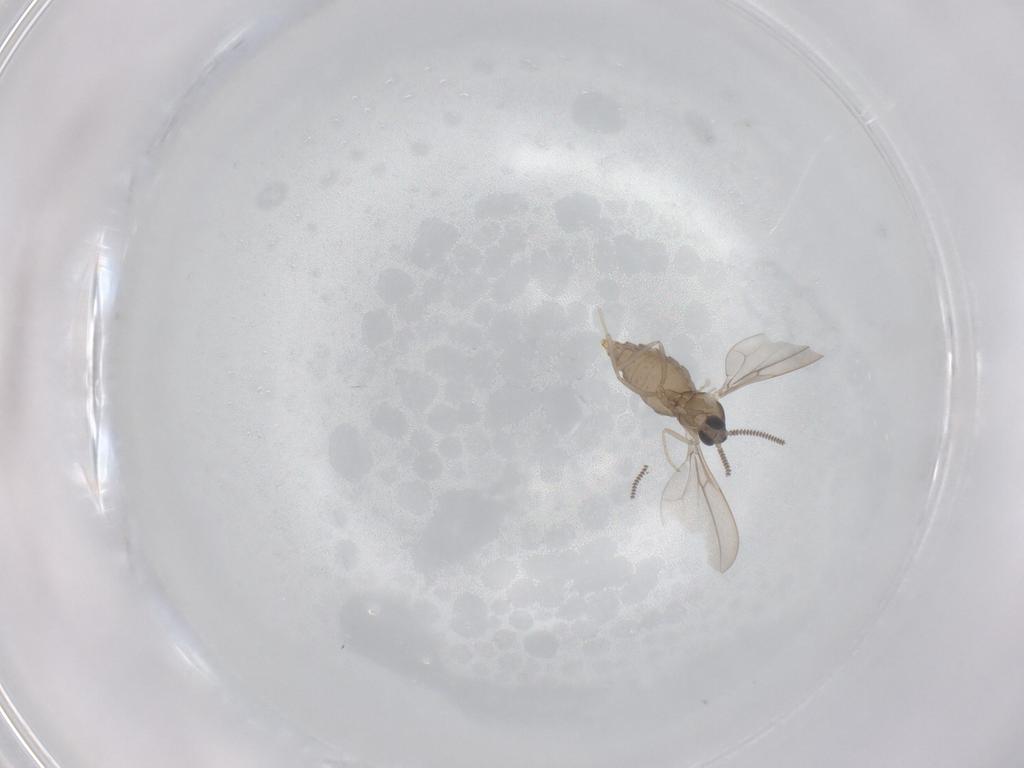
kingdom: Animalia
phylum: Arthropoda
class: Insecta
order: Diptera
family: Cecidomyiidae
